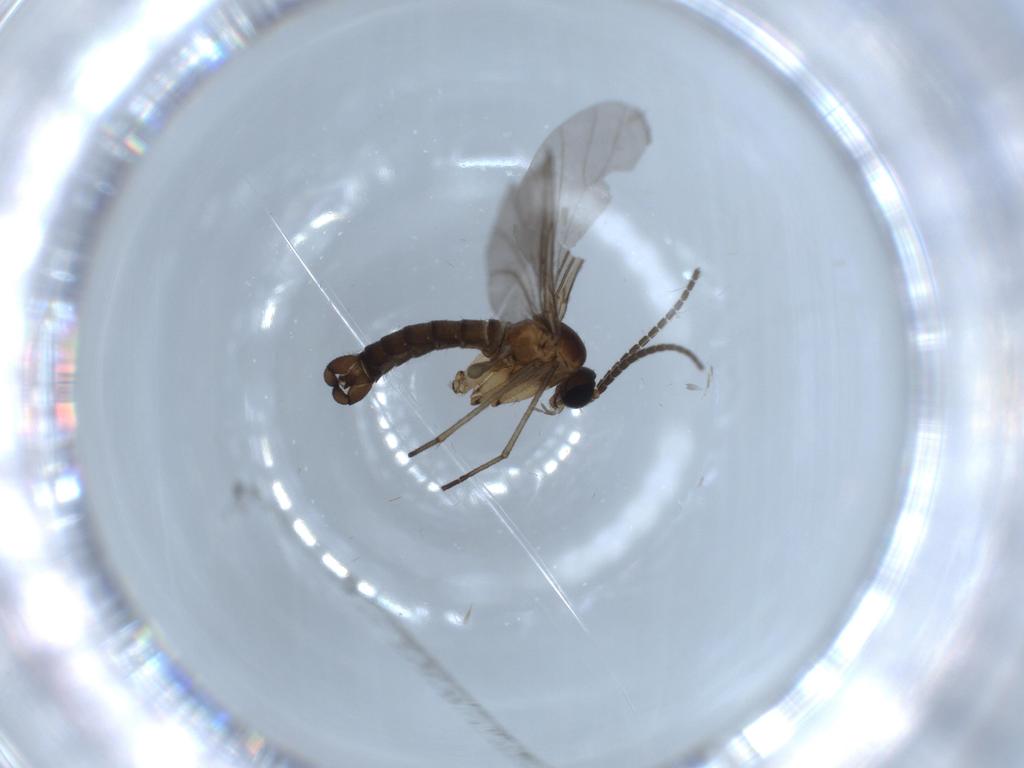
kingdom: Animalia
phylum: Arthropoda
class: Insecta
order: Diptera
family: Sciaridae
